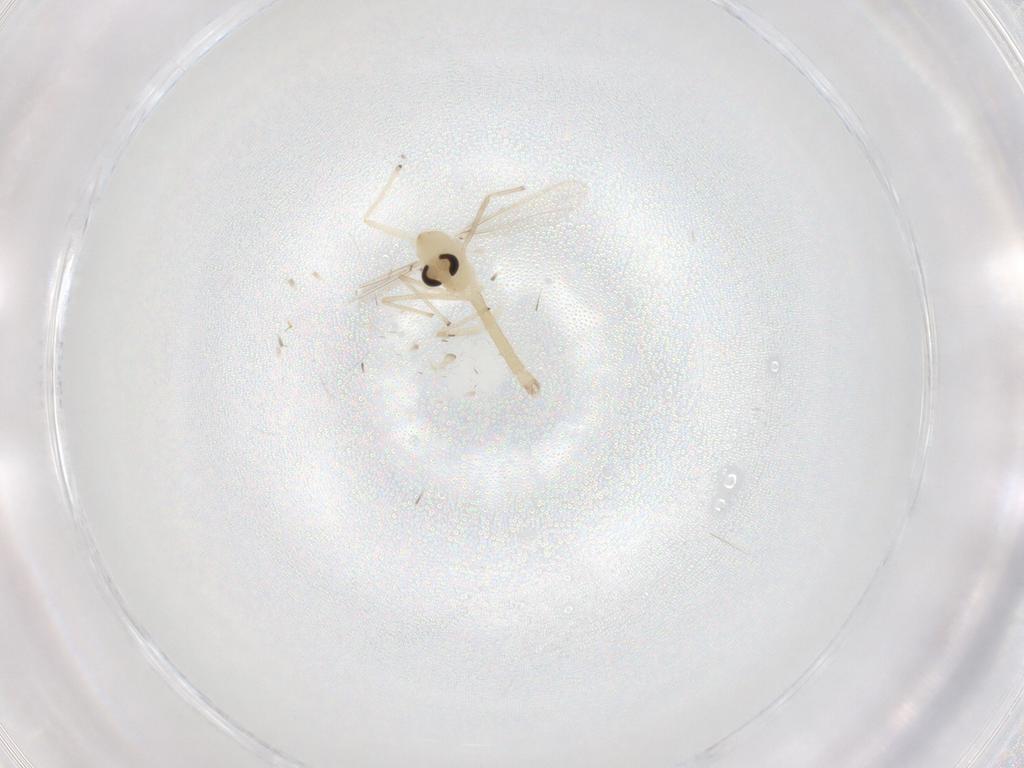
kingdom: Animalia
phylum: Arthropoda
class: Insecta
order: Diptera
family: Chironomidae
